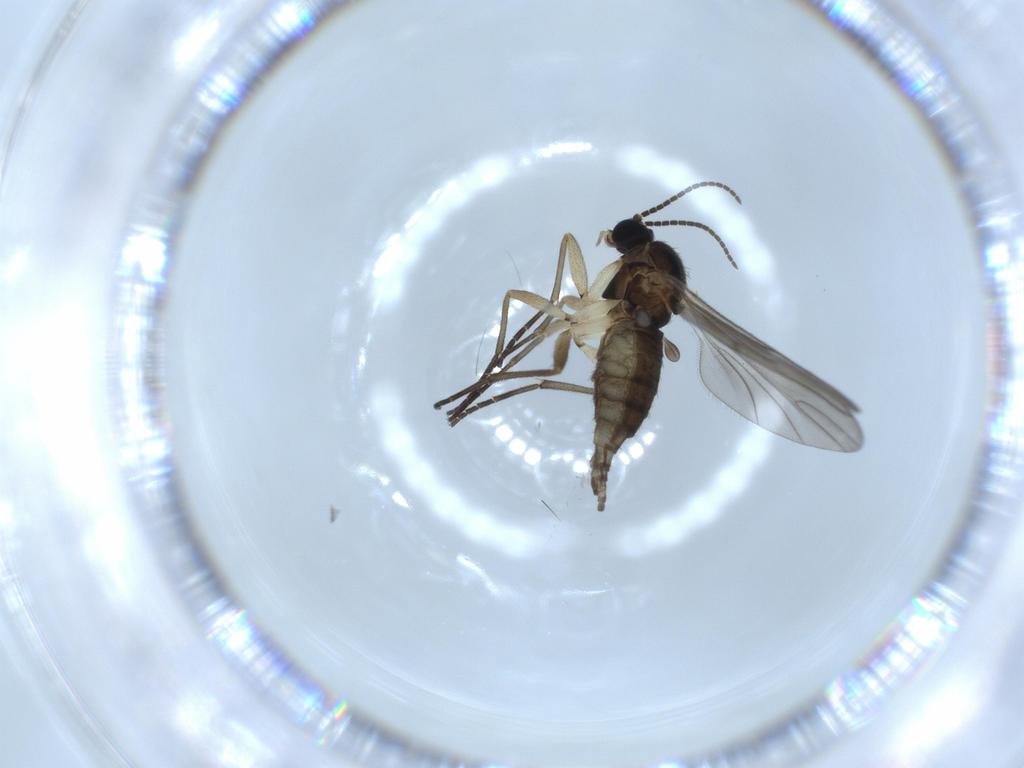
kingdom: Animalia
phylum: Arthropoda
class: Insecta
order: Diptera
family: Sciaridae
